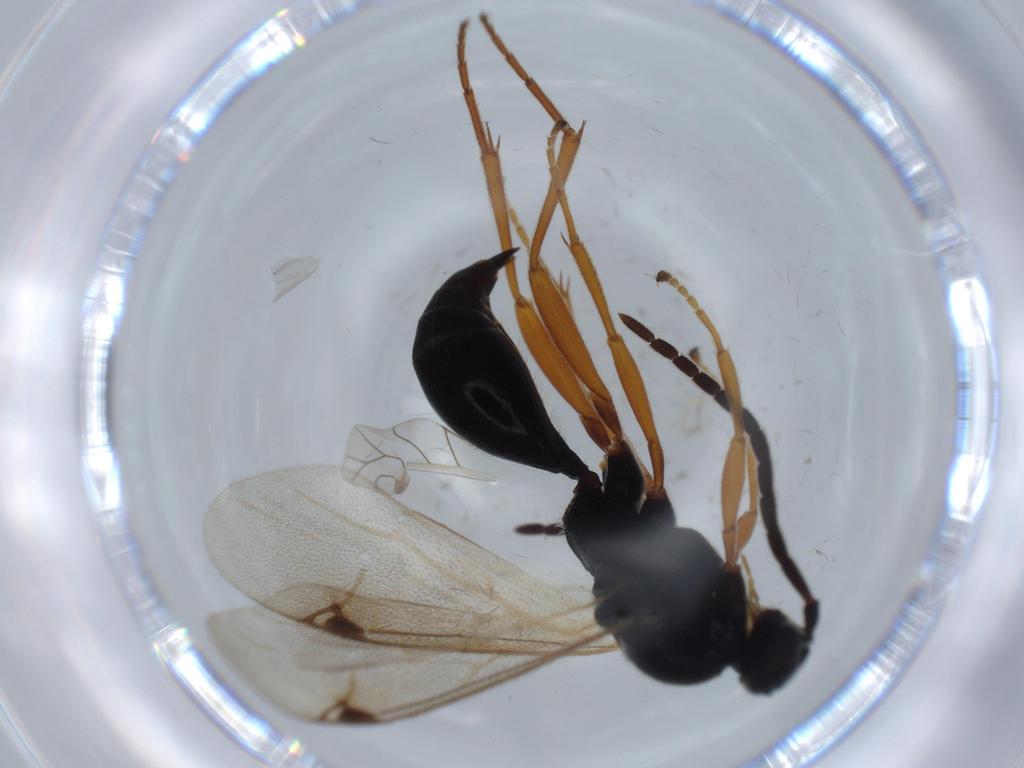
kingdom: Animalia
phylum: Arthropoda
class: Insecta
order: Hymenoptera
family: Proctotrupidae
